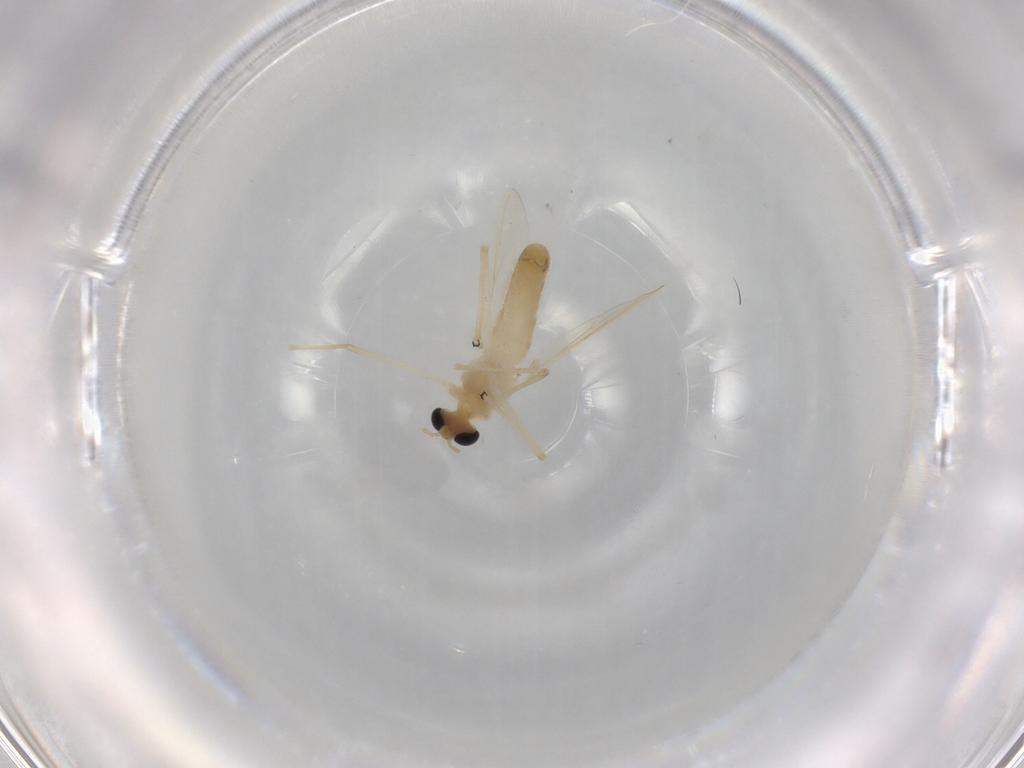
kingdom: Animalia
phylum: Arthropoda
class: Insecta
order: Diptera
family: Chironomidae
